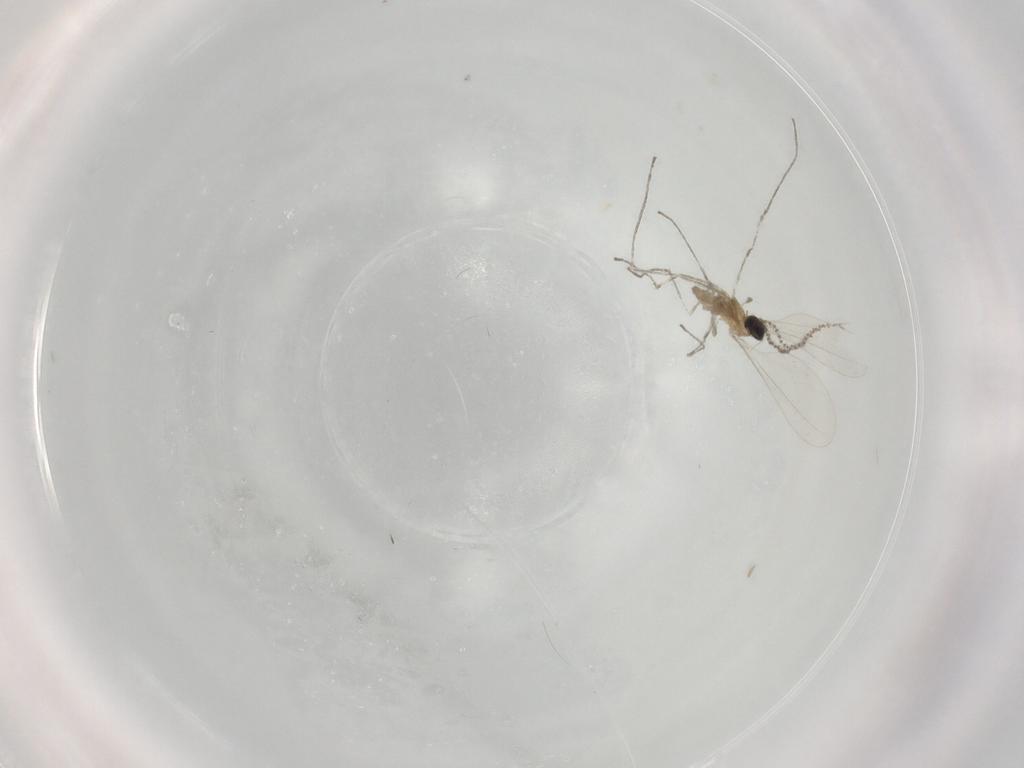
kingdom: Animalia
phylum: Arthropoda
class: Insecta
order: Diptera
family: Cecidomyiidae
